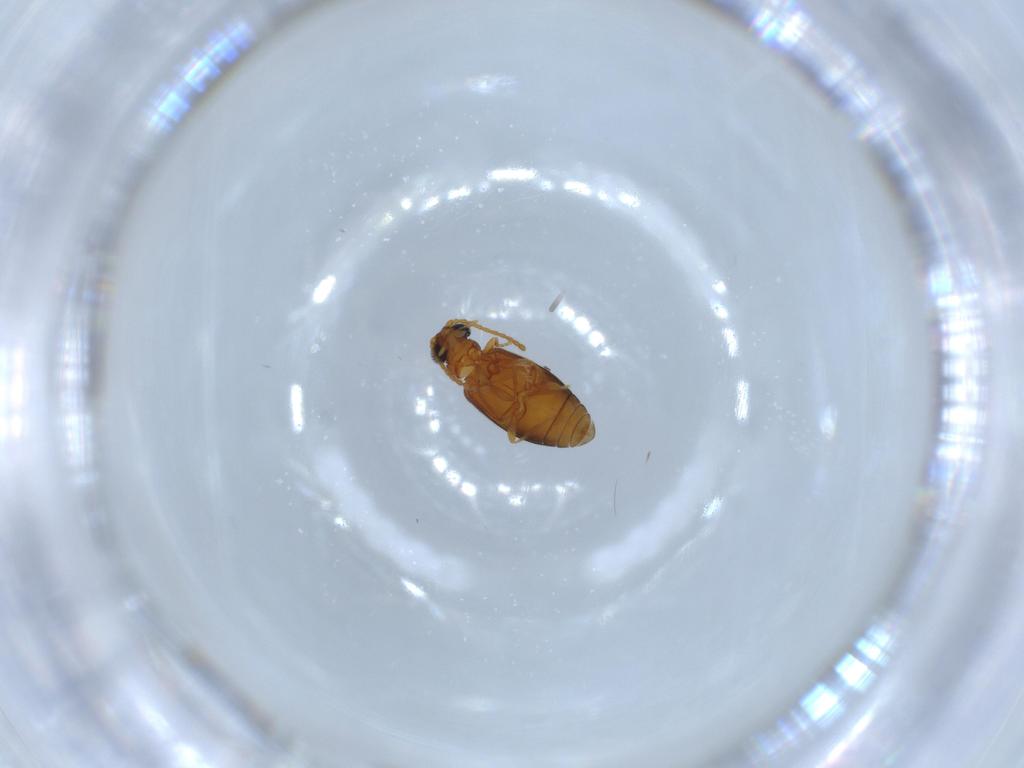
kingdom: Animalia
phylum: Arthropoda
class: Insecta
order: Coleoptera
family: Aderidae
